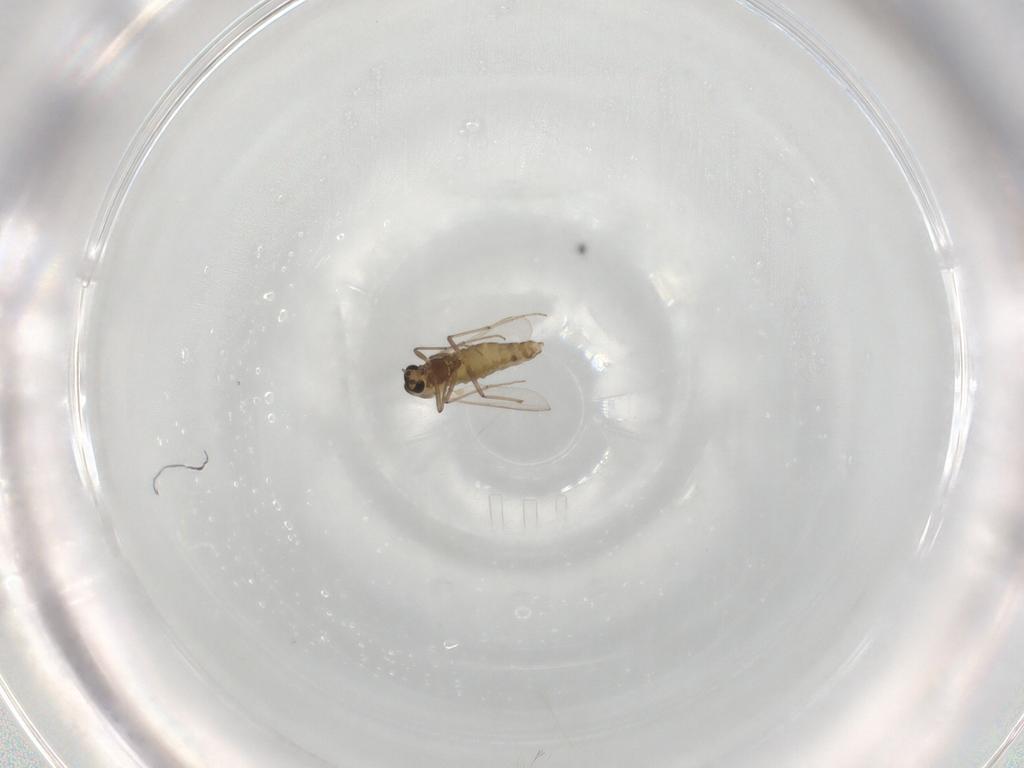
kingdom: Animalia
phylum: Arthropoda
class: Insecta
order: Diptera
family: Chironomidae
